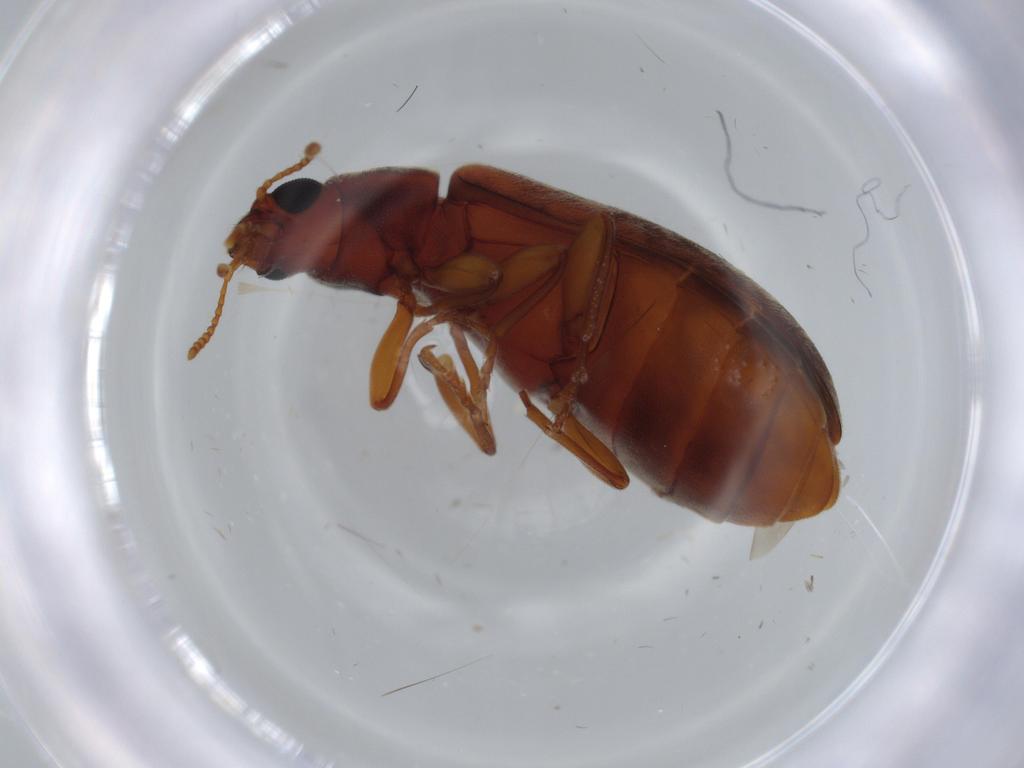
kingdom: Animalia
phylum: Arthropoda
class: Insecta
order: Coleoptera
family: Mycteridae
